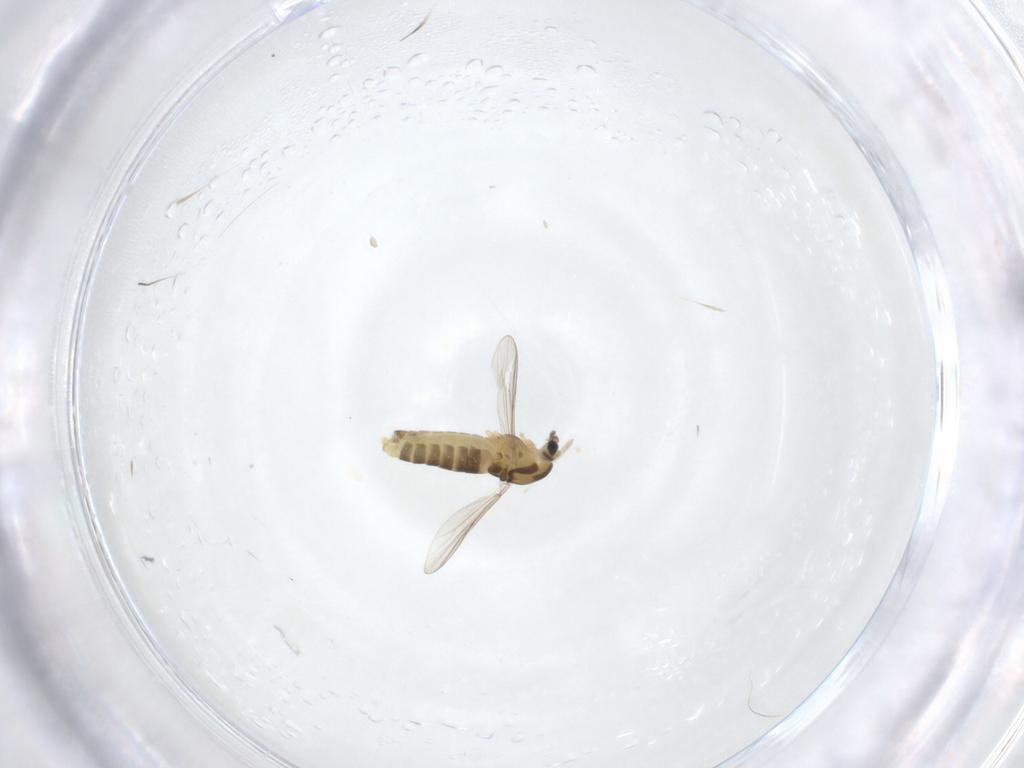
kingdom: Animalia
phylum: Arthropoda
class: Insecta
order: Diptera
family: Chironomidae
